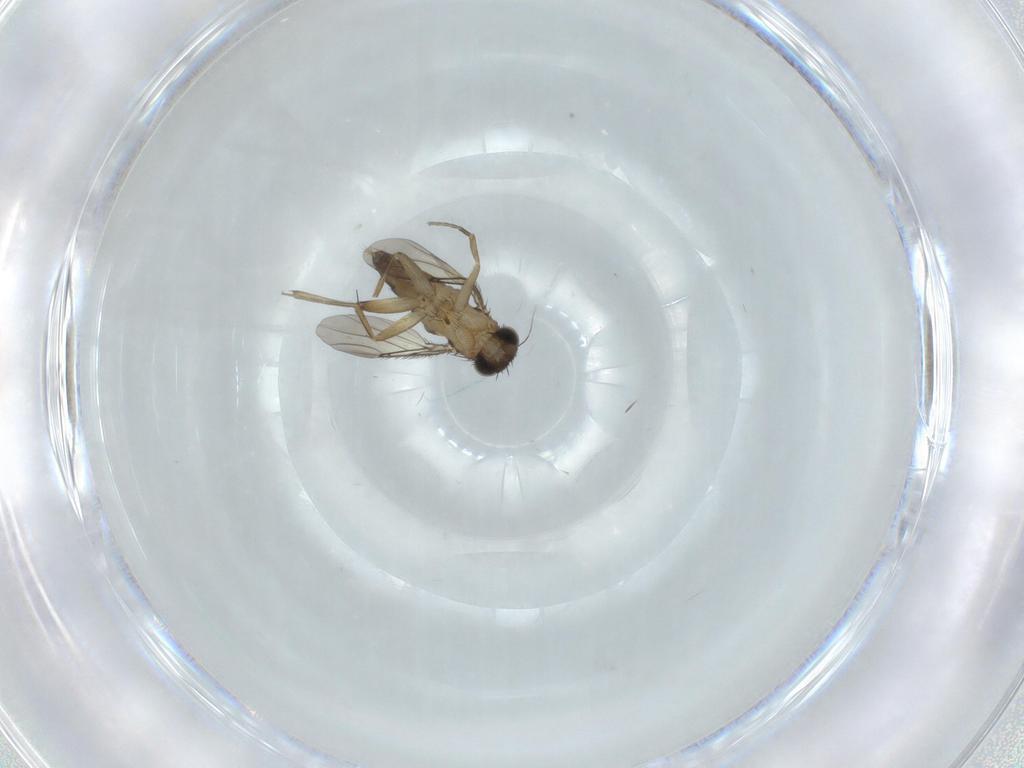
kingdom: Animalia
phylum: Arthropoda
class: Insecta
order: Diptera
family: Phoridae
